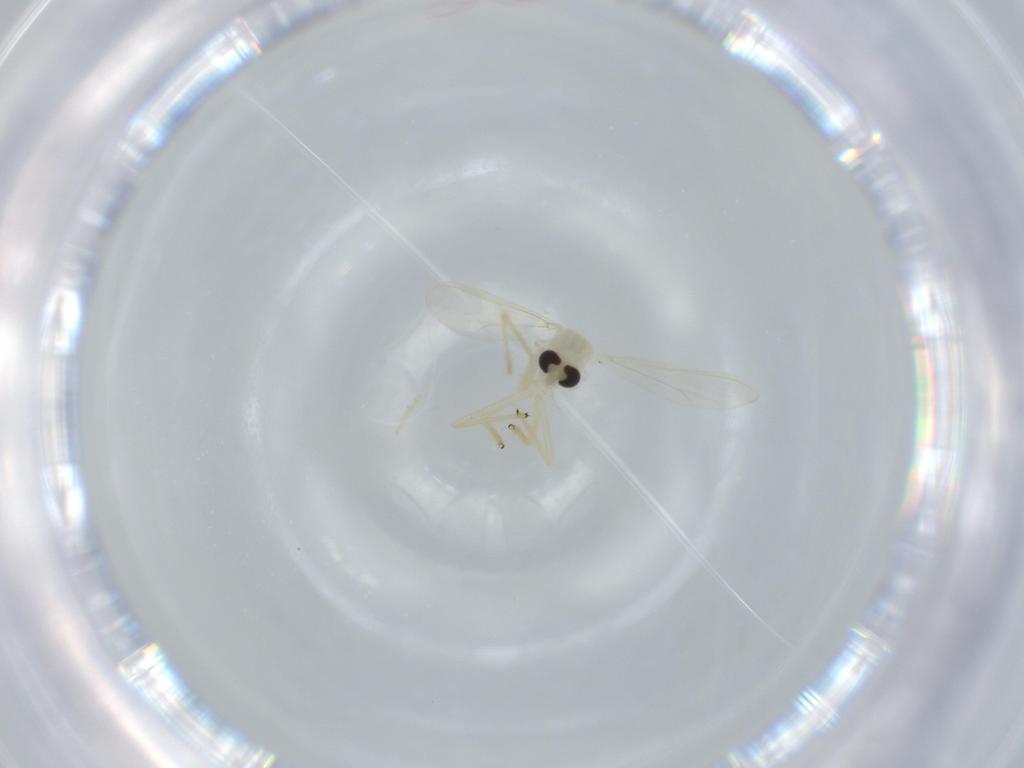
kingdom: Animalia
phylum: Arthropoda
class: Insecta
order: Diptera
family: Chironomidae
